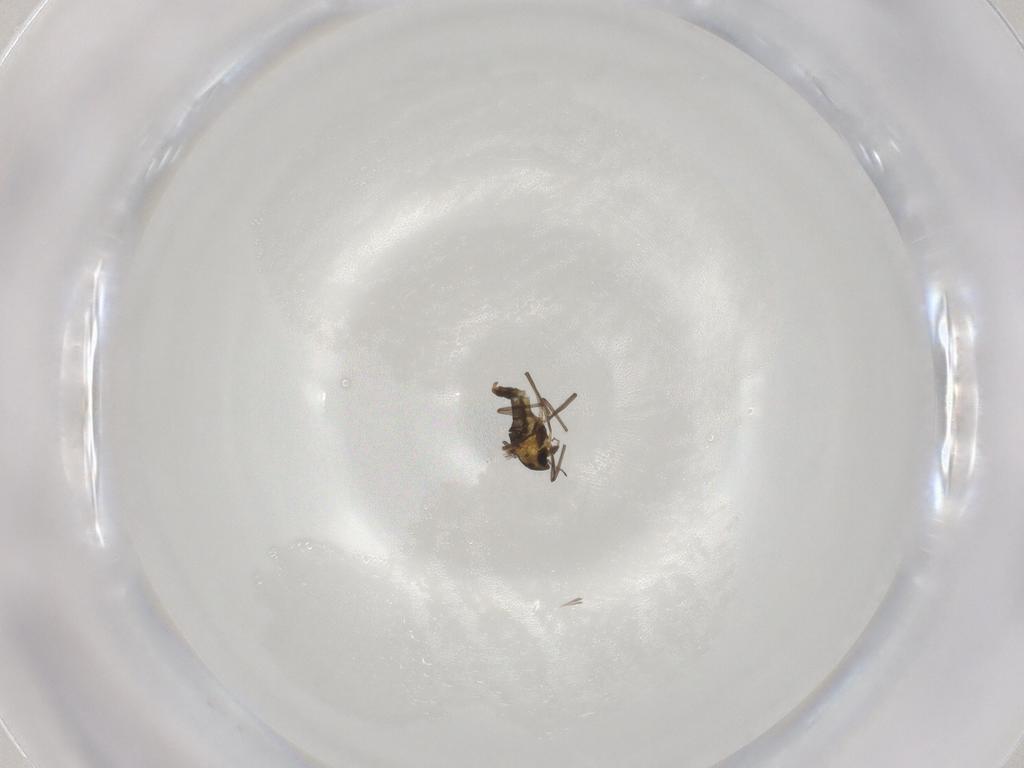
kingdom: Animalia
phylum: Arthropoda
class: Insecta
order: Diptera
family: Chironomidae
